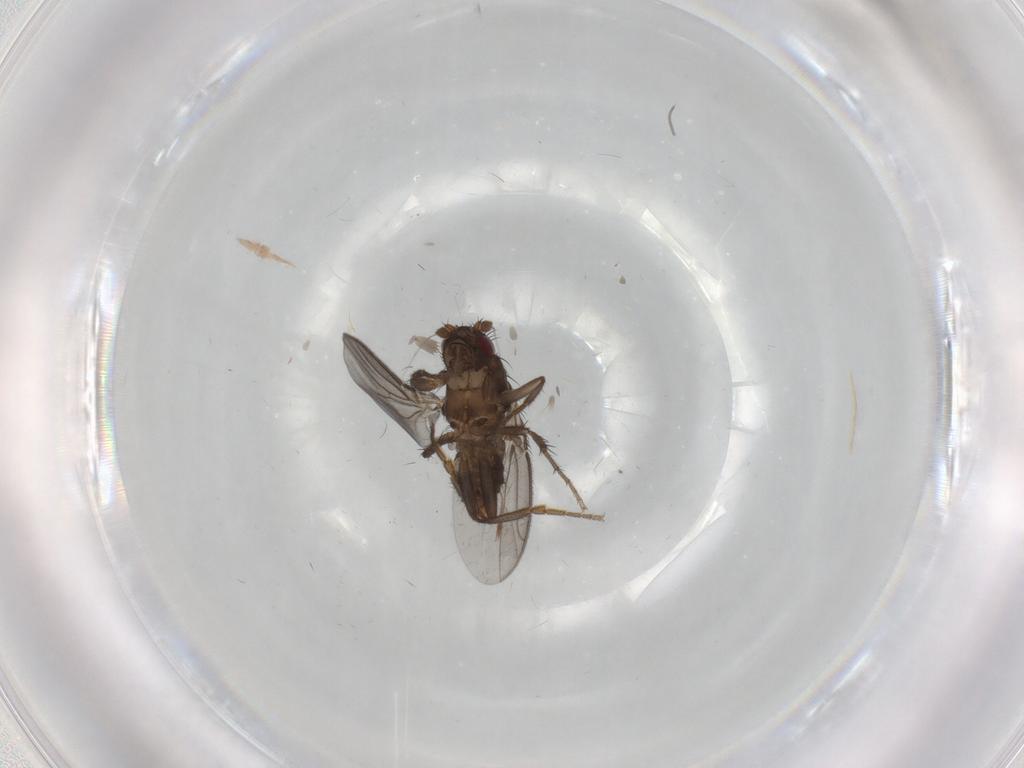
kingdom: Animalia
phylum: Arthropoda
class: Insecta
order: Diptera
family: Sphaeroceridae
